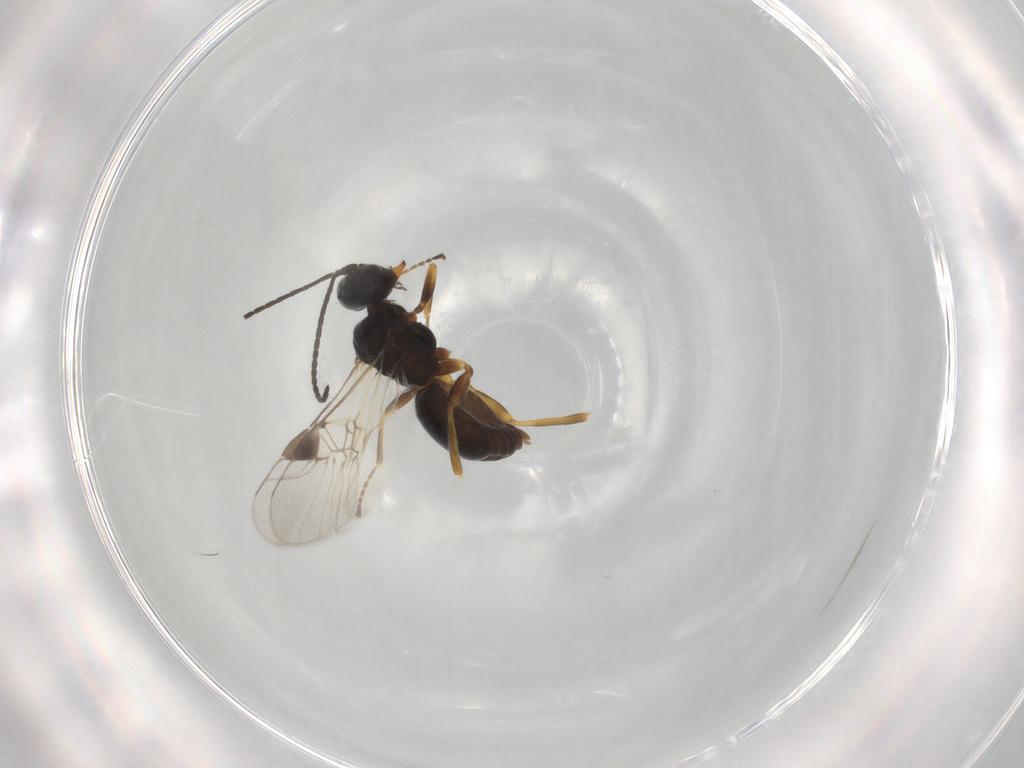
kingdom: Animalia
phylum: Arthropoda
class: Insecta
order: Hymenoptera
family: Braconidae
